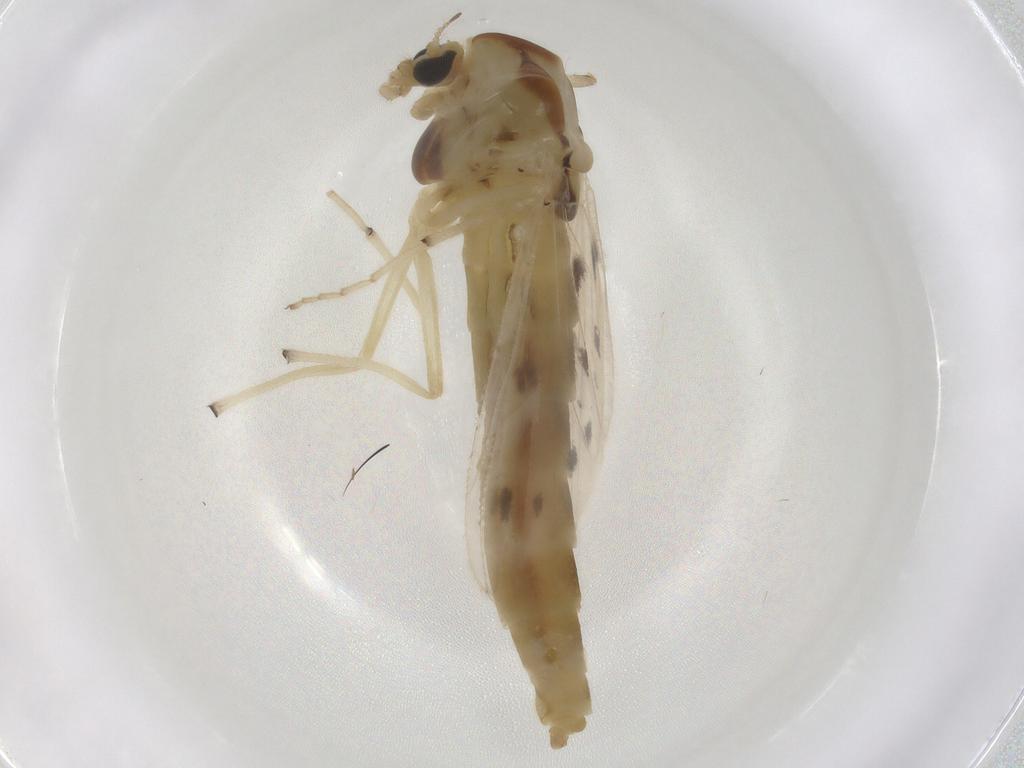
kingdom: Animalia
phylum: Arthropoda
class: Insecta
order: Diptera
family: Chironomidae
